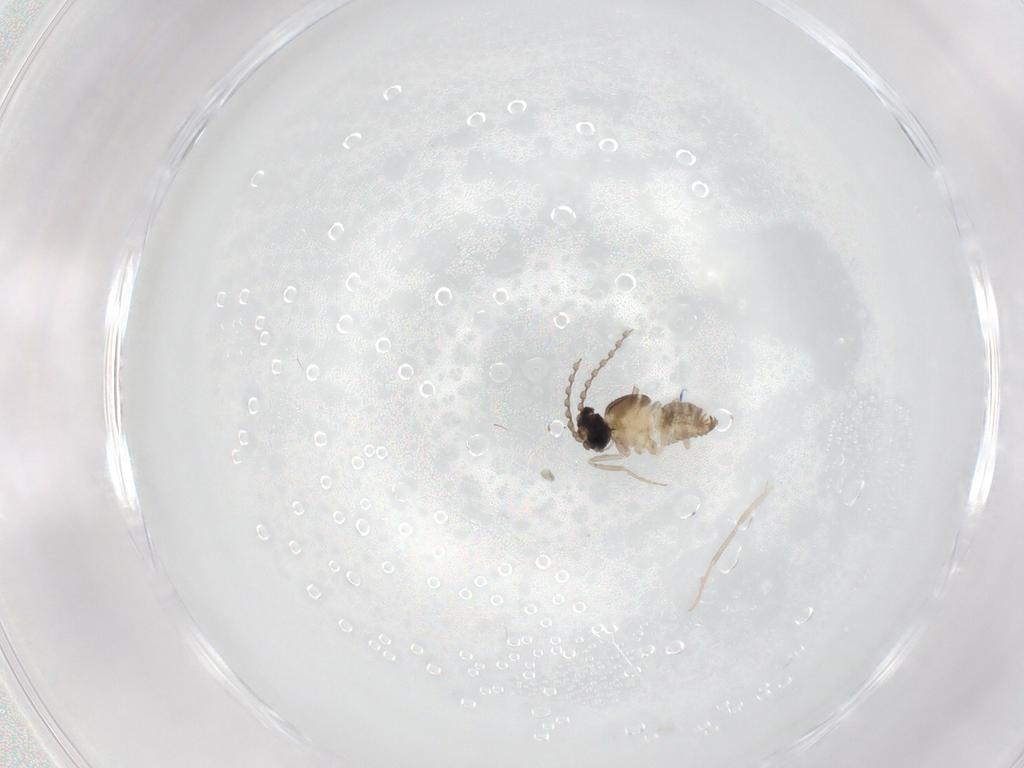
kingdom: Animalia
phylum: Arthropoda
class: Insecta
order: Diptera
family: Cecidomyiidae
